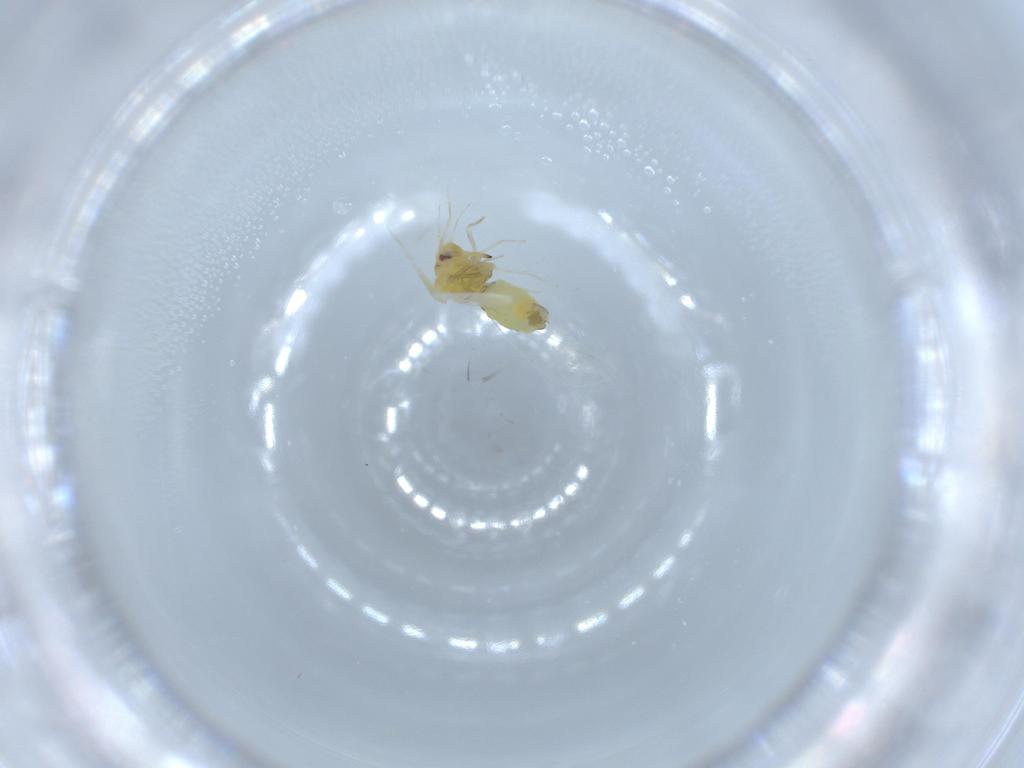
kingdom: Animalia
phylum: Arthropoda
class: Insecta
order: Hemiptera
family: Aleyrodidae
